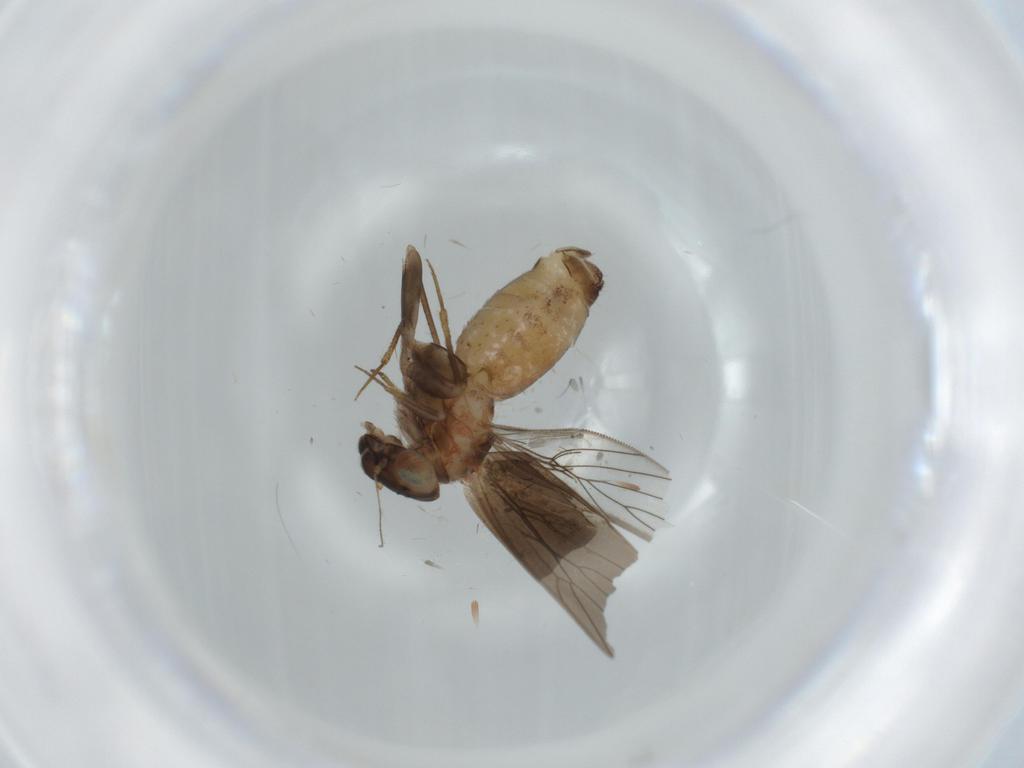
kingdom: Animalia
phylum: Arthropoda
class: Insecta
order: Psocodea
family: Lepidopsocidae
